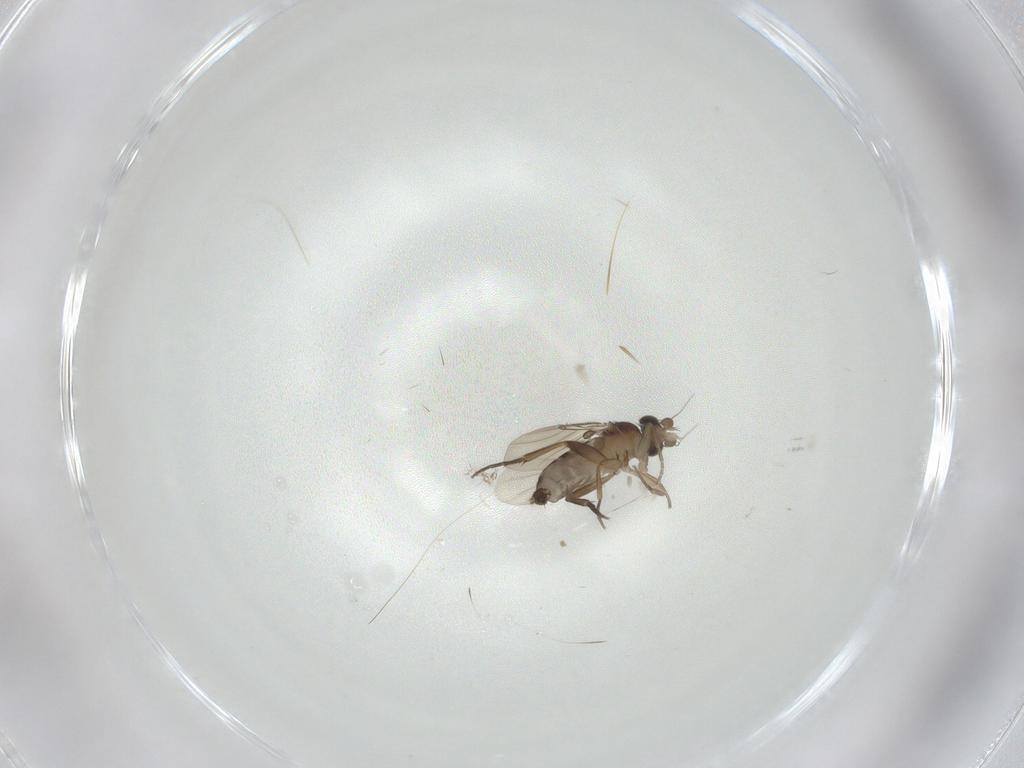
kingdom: Animalia
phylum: Arthropoda
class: Insecta
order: Diptera
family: Phoridae
